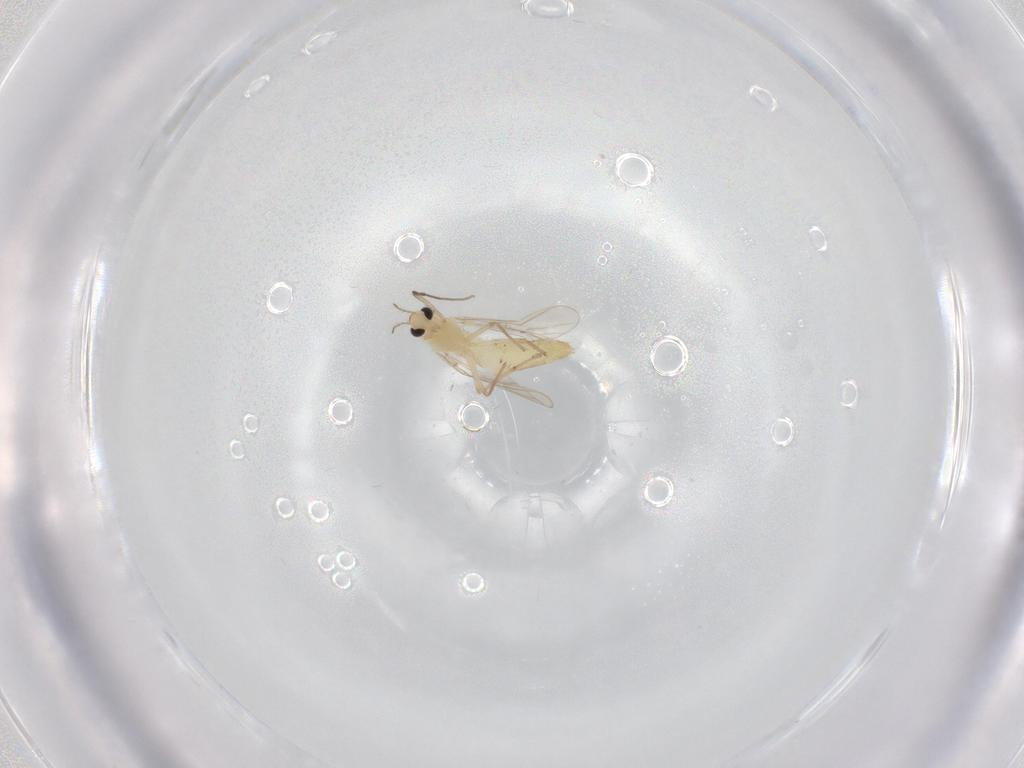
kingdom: Animalia
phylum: Arthropoda
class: Insecta
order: Diptera
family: Chironomidae
